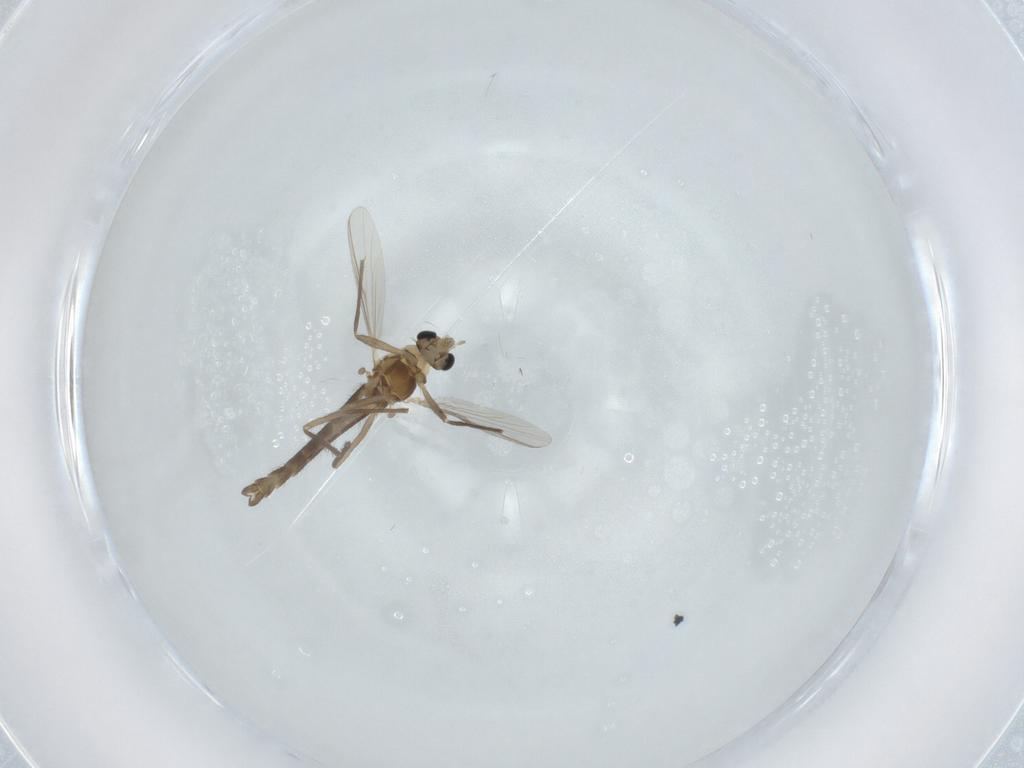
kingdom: Animalia
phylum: Arthropoda
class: Insecta
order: Diptera
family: Chironomidae
